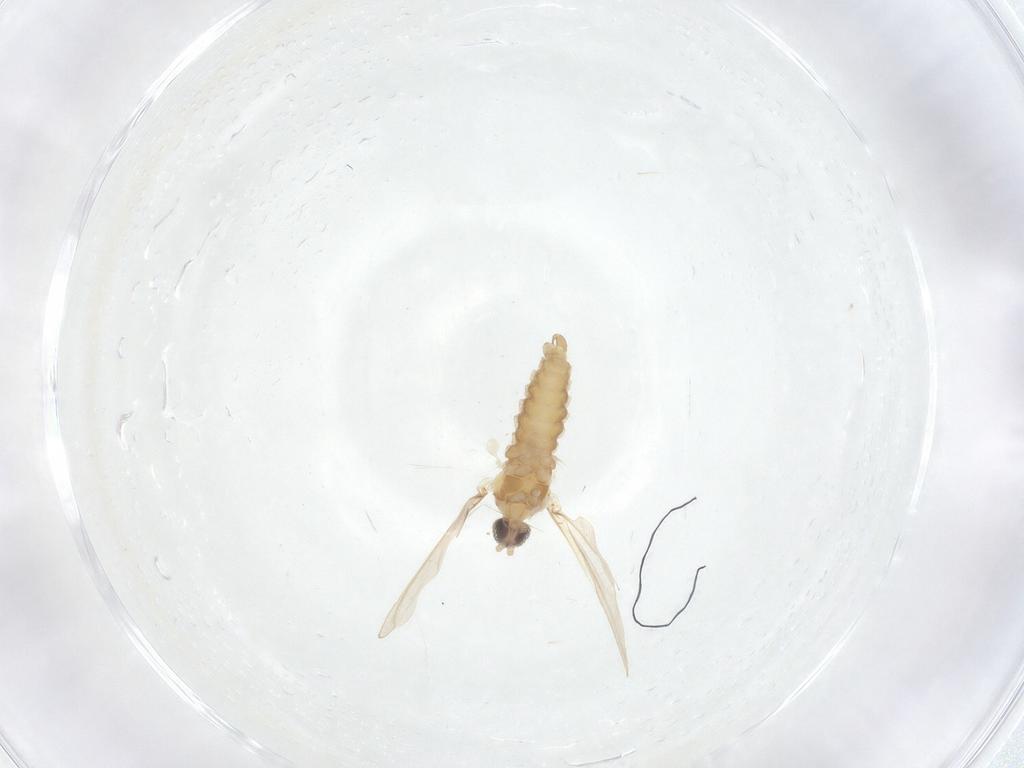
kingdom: Animalia
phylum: Arthropoda
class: Insecta
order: Diptera
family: Cecidomyiidae
